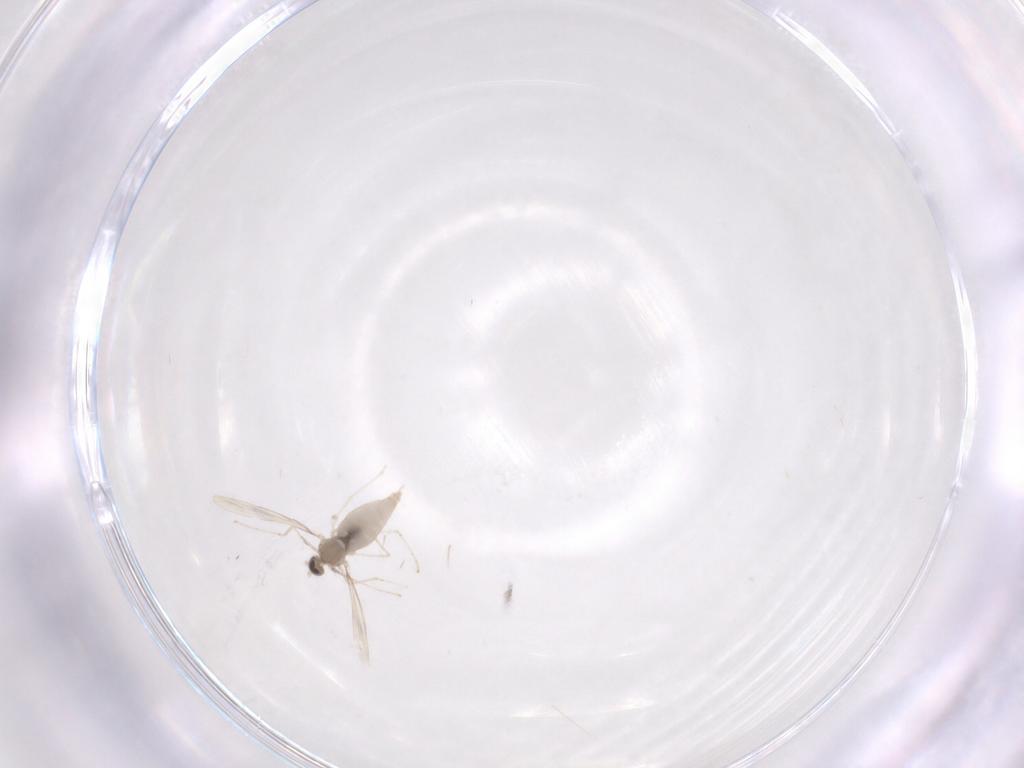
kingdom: Animalia
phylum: Arthropoda
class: Insecta
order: Diptera
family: Cecidomyiidae
